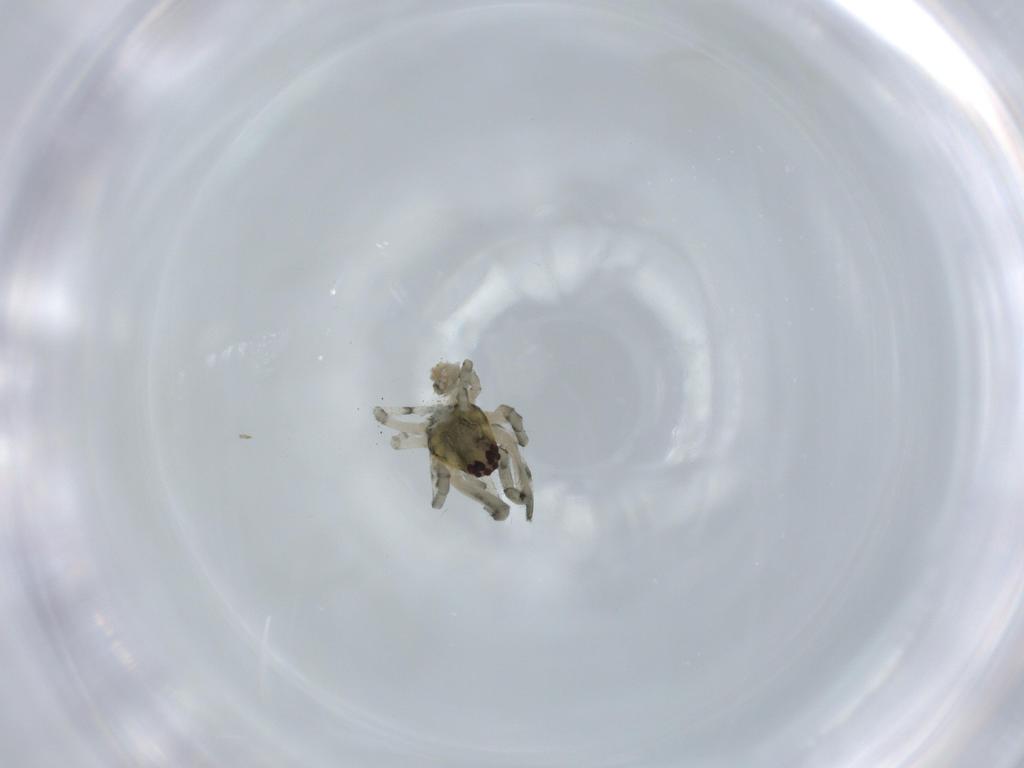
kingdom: Animalia
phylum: Arthropoda
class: Arachnida
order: Araneae
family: Tetragnathidae
